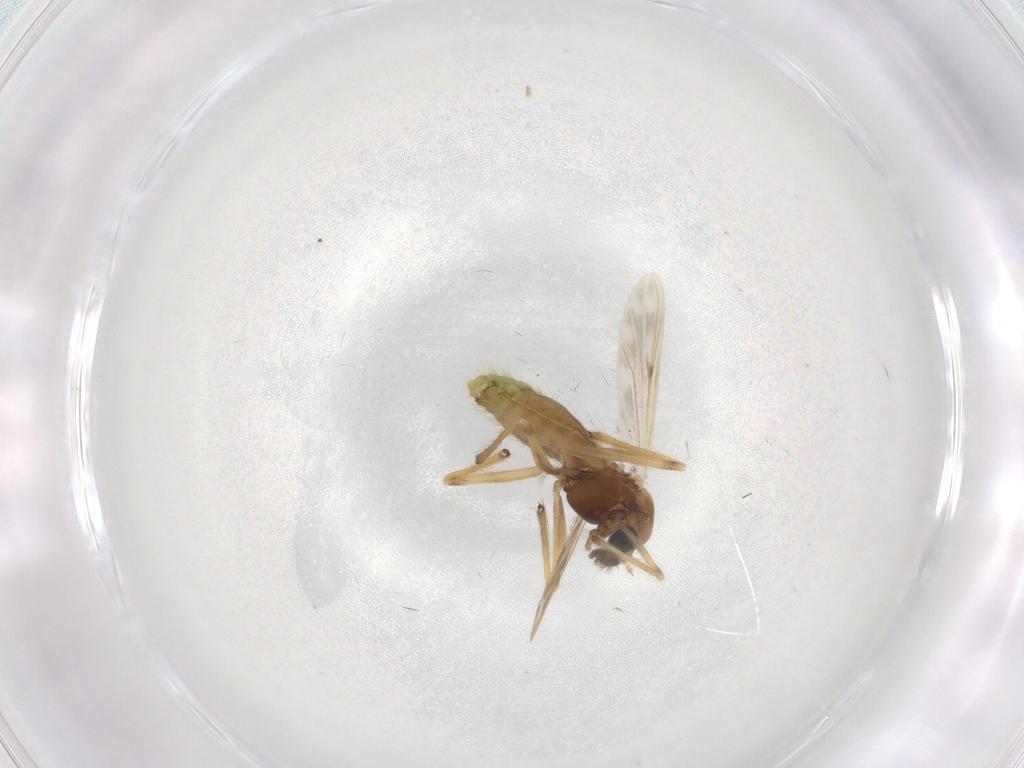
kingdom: Animalia
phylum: Arthropoda
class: Insecta
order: Diptera
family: Chironomidae
